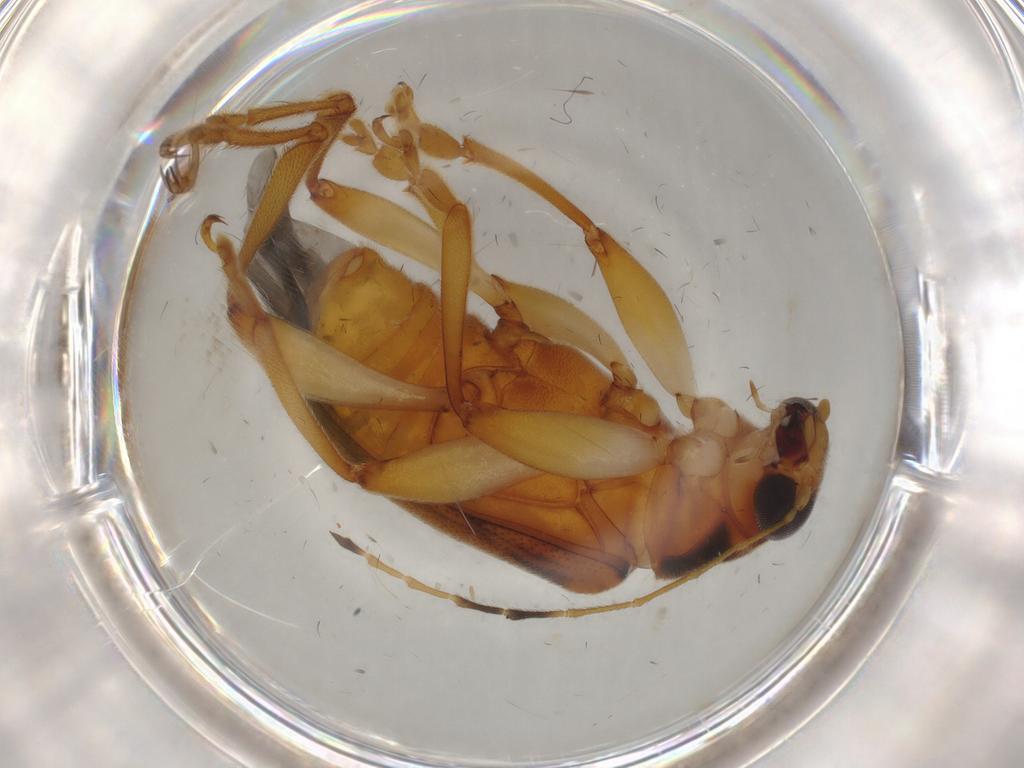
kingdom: Animalia
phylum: Arthropoda
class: Insecta
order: Coleoptera
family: Chrysomelidae
